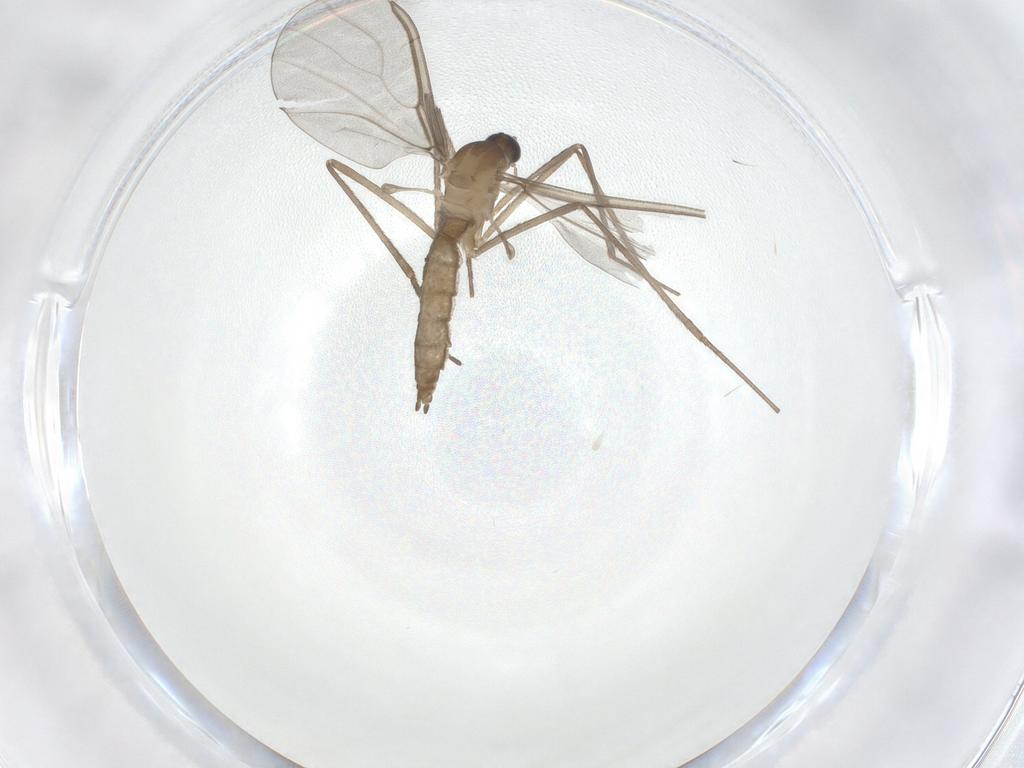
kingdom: Animalia
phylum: Arthropoda
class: Insecta
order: Diptera
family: Cecidomyiidae
